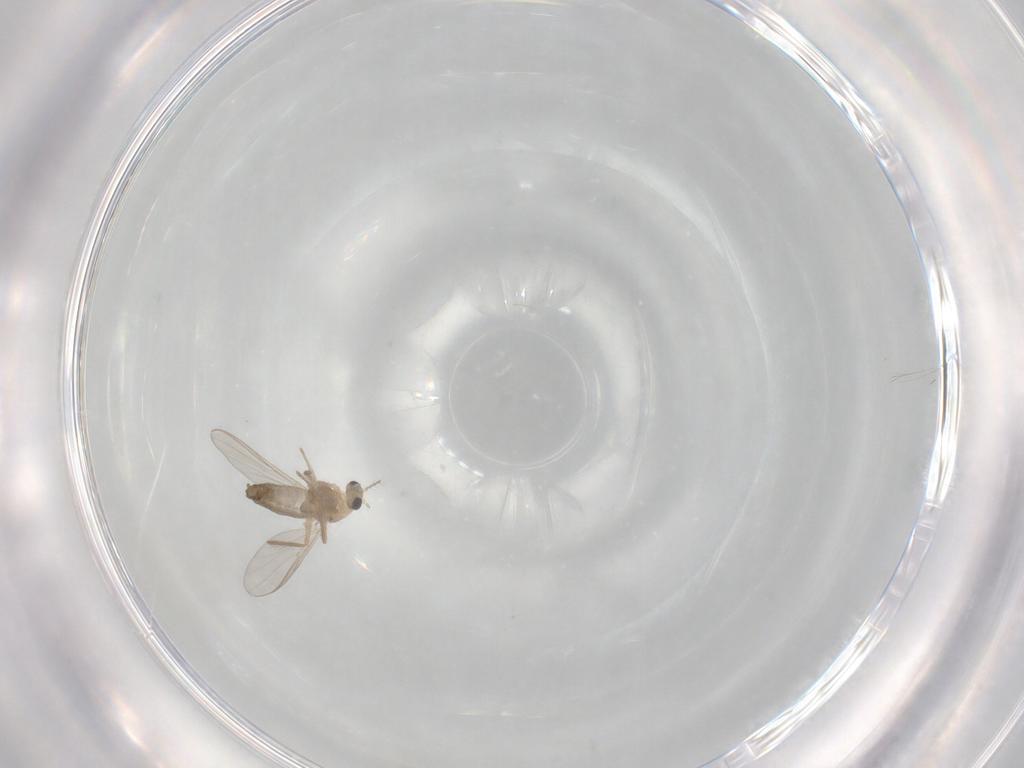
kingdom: Animalia
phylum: Arthropoda
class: Insecta
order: Diptera
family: Chironomidae
